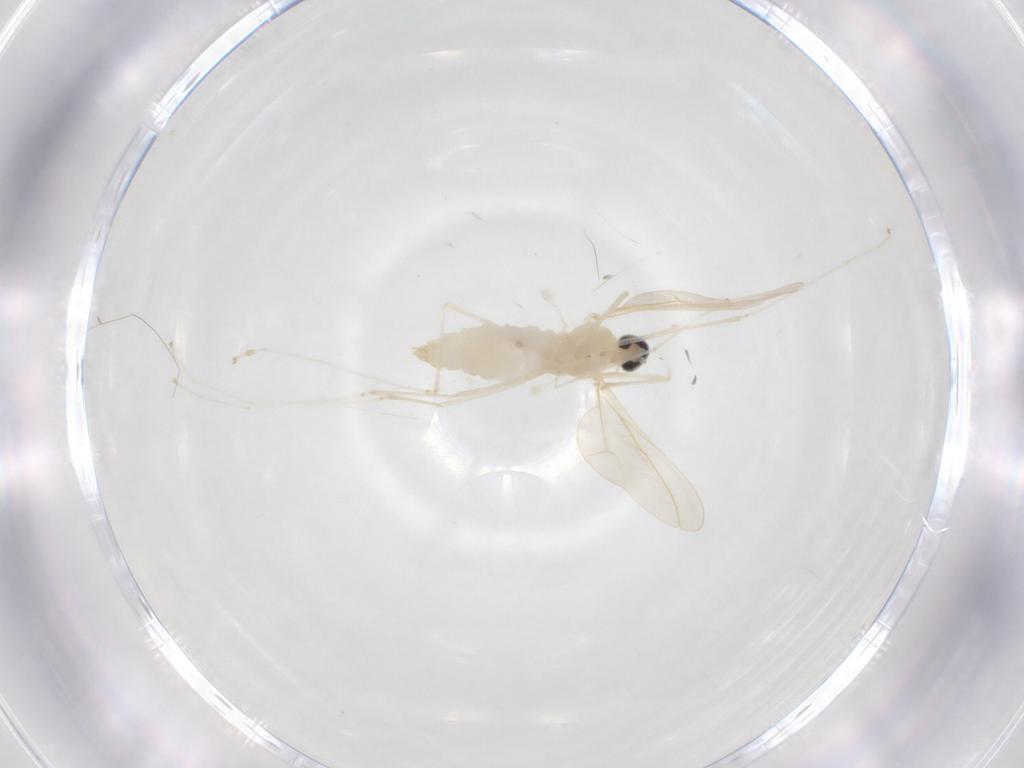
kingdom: Animalia
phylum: Arthropoda
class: Insecta
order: Diptera
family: Cecidomyiidae
